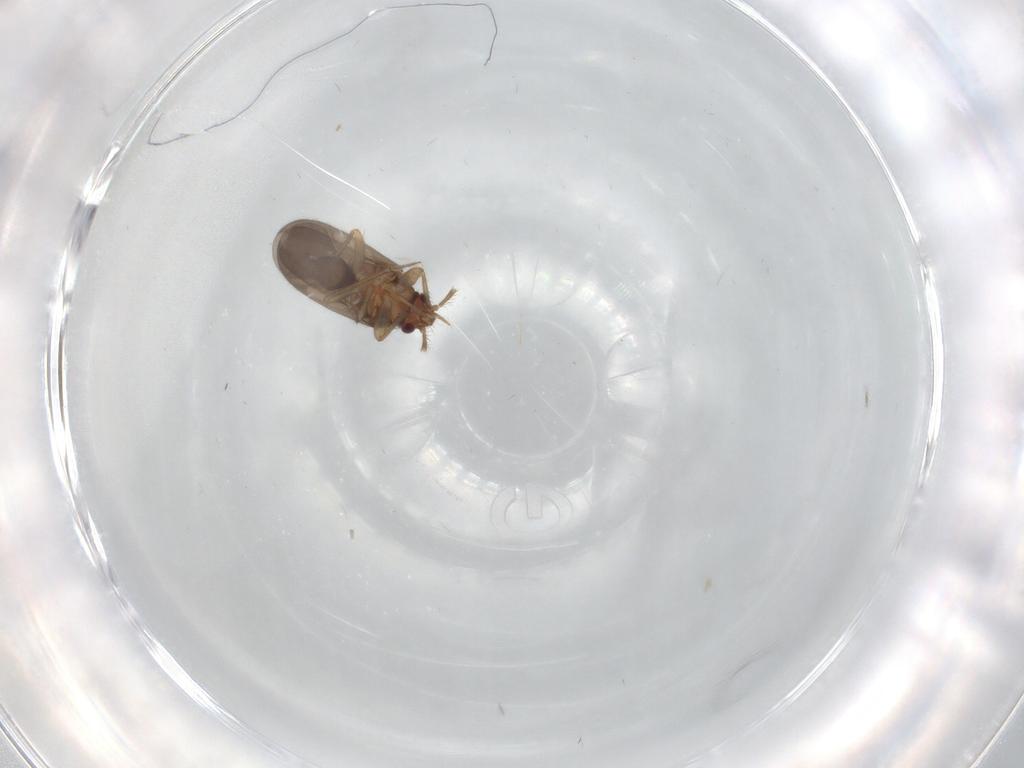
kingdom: Animalia
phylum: Arthropoda
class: Insecta
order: Hemiptera
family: Ceratocombidae
